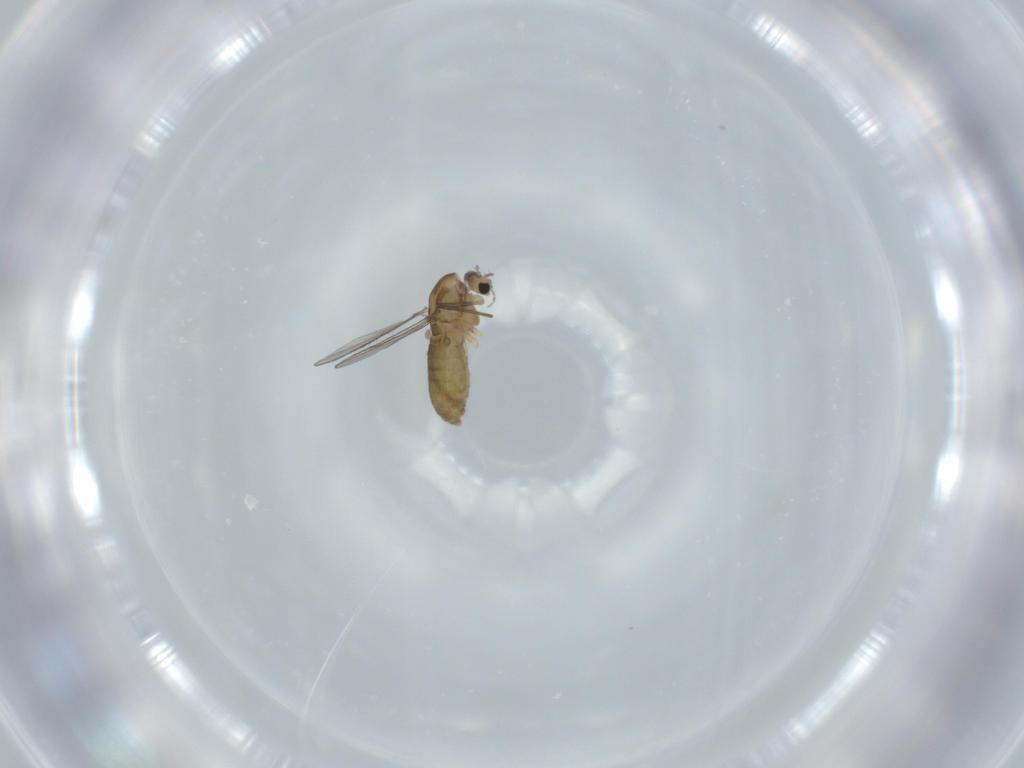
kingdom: Animalia
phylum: Arthropoda
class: Insecta
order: Diptera
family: Chironomidae
